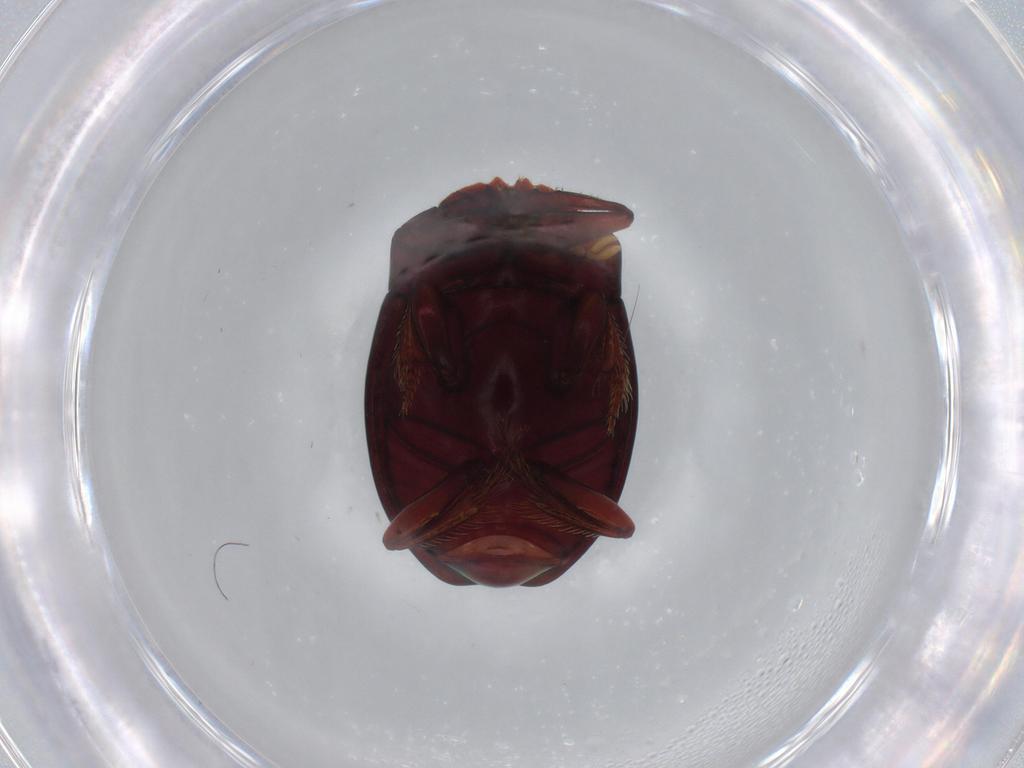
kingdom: Animalia
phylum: Arthropoda
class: Insecta
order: Coleoptera
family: Scarabaeidae
